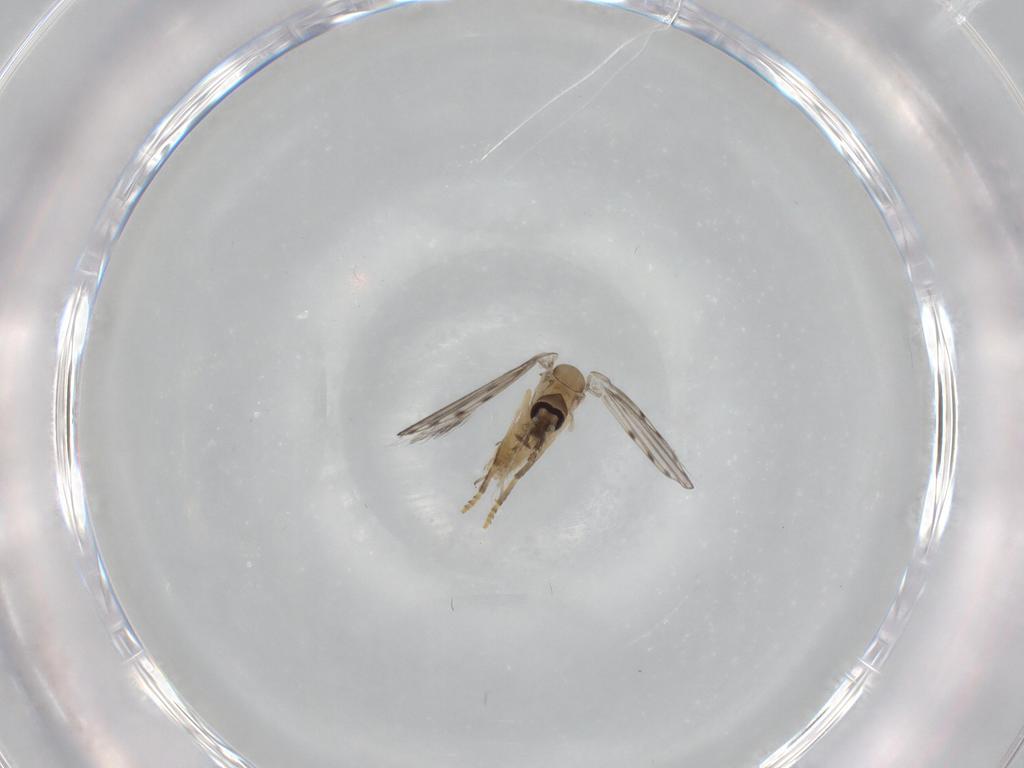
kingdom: Animalia
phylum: Arthropoda
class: Insecta
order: Diptera
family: Psychodidae
